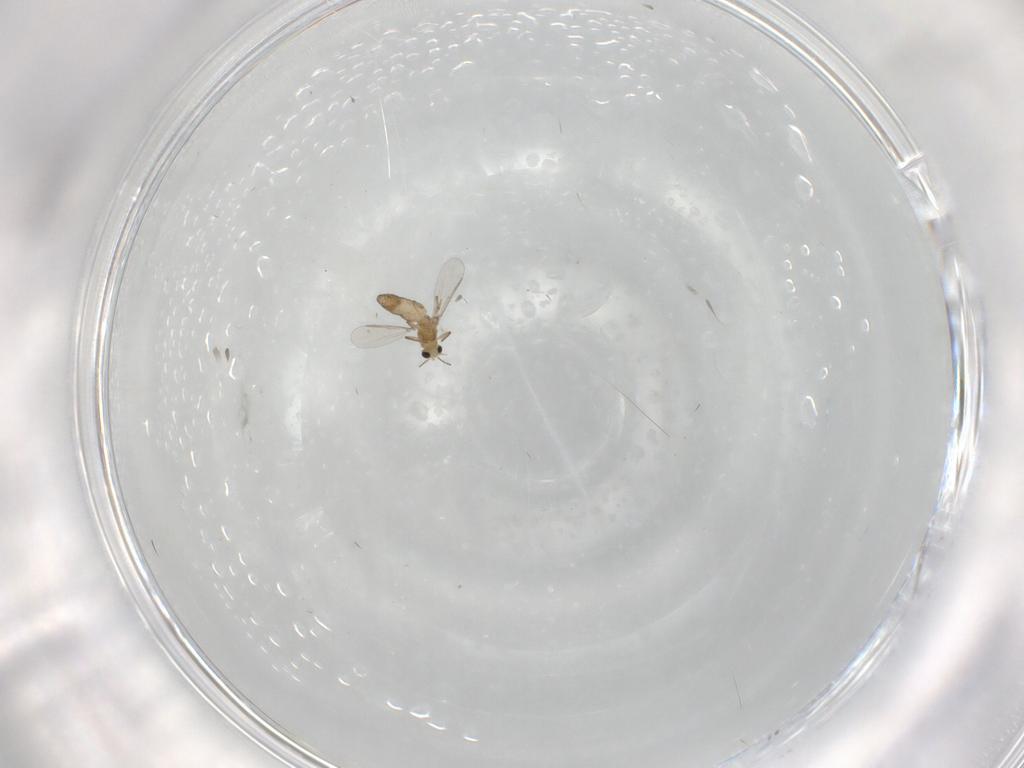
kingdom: Animalia
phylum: Arthropoda
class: Insecta
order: Diptera
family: Chironomidae
